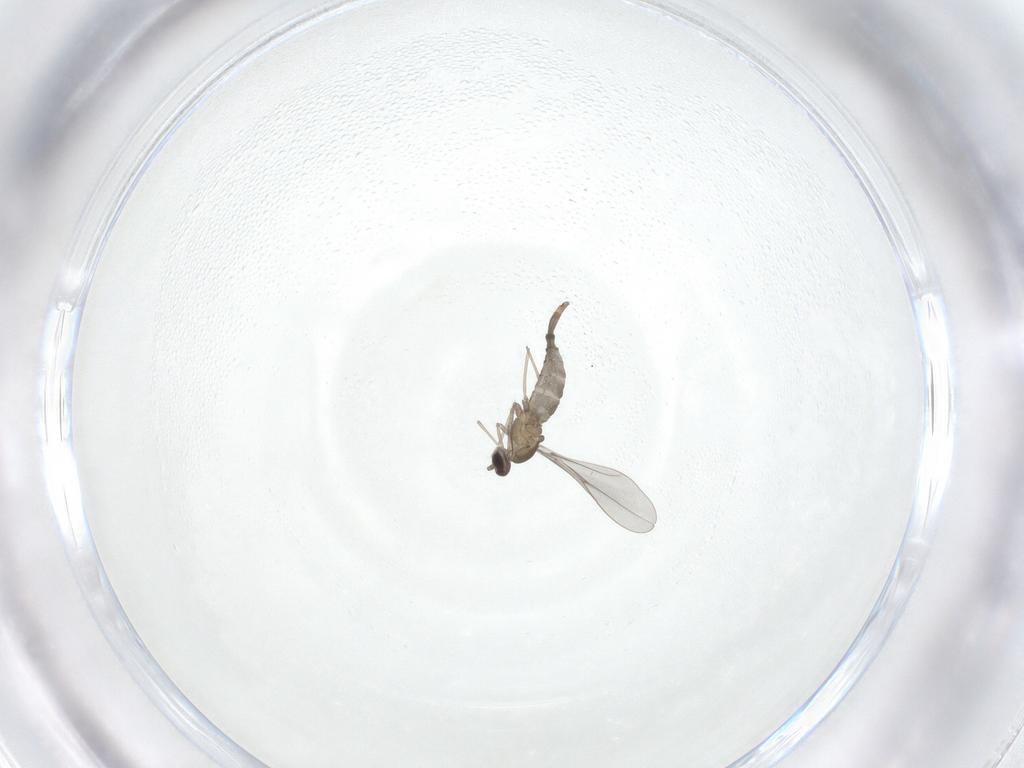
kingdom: Animalia
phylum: Arthropoda
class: Insecta
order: Diptera
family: Cecidomyiidae
